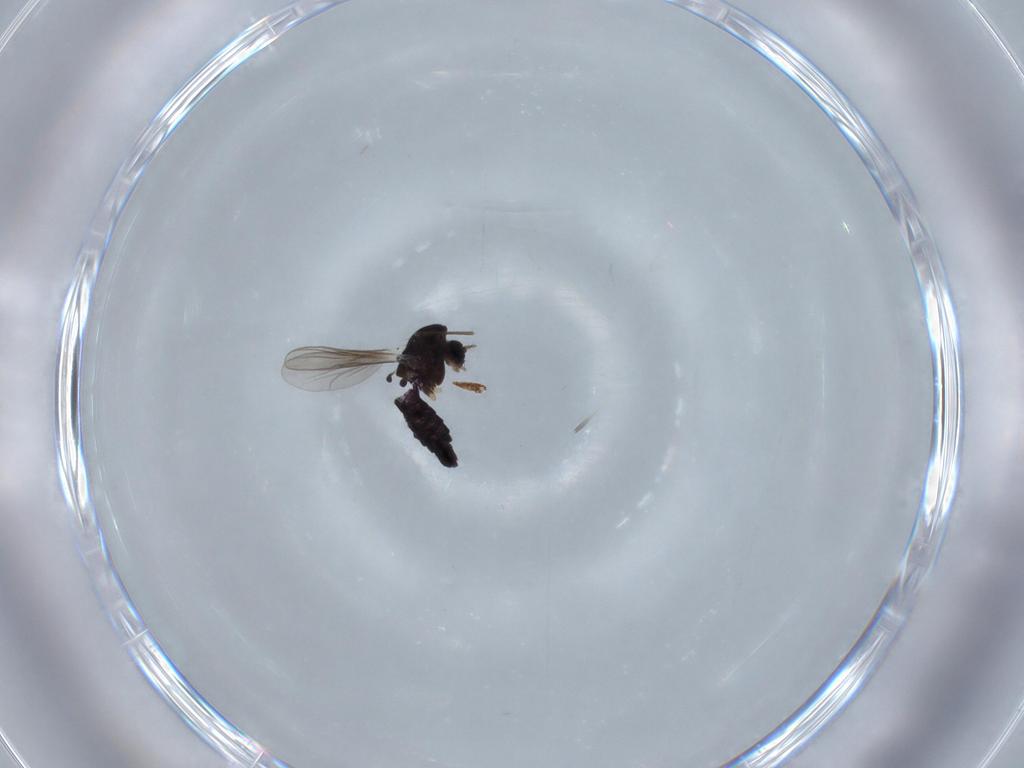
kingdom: Animalia
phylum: Arthropoda
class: Insecta
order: Diptera
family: Chironomidae
